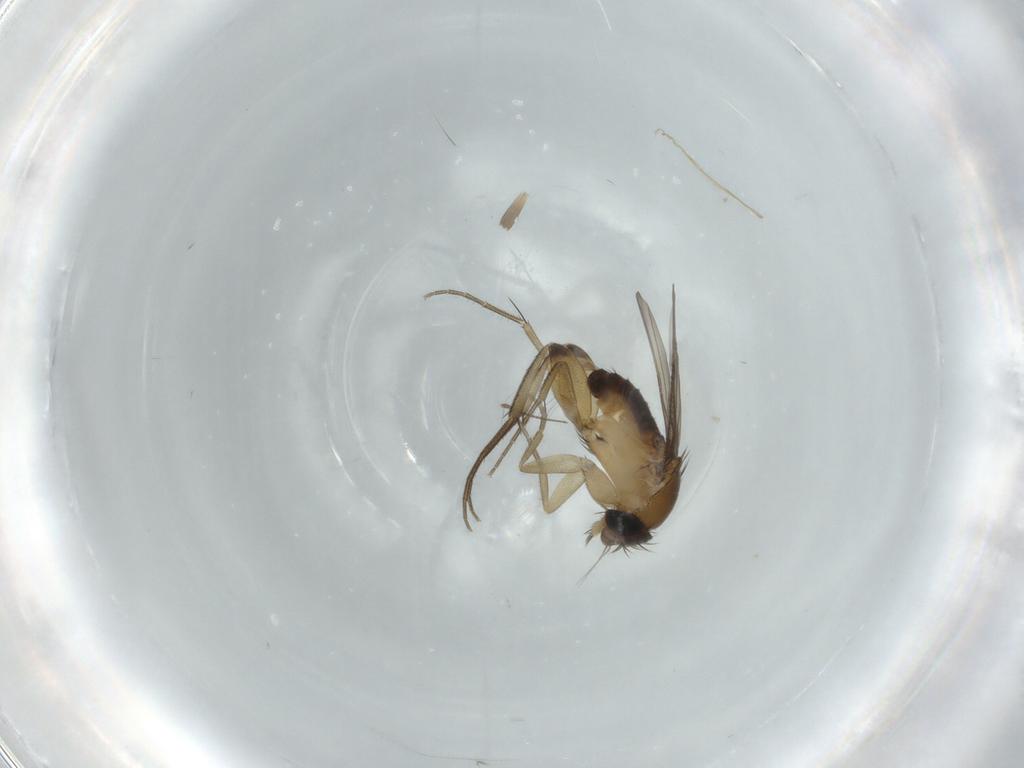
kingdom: Animalia
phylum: Arthropoda
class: Insecta
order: Diptera
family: Phoridae
